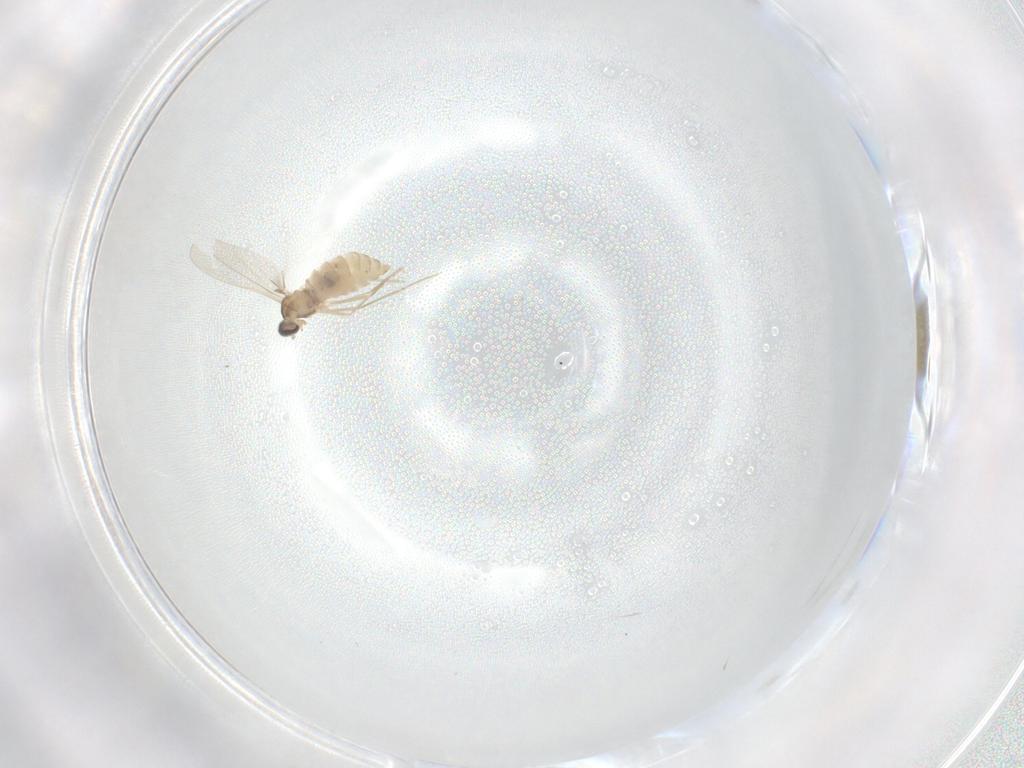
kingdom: Animalia
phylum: Arthropoda
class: Insecta
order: Diptera
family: Cecidomyiidae
